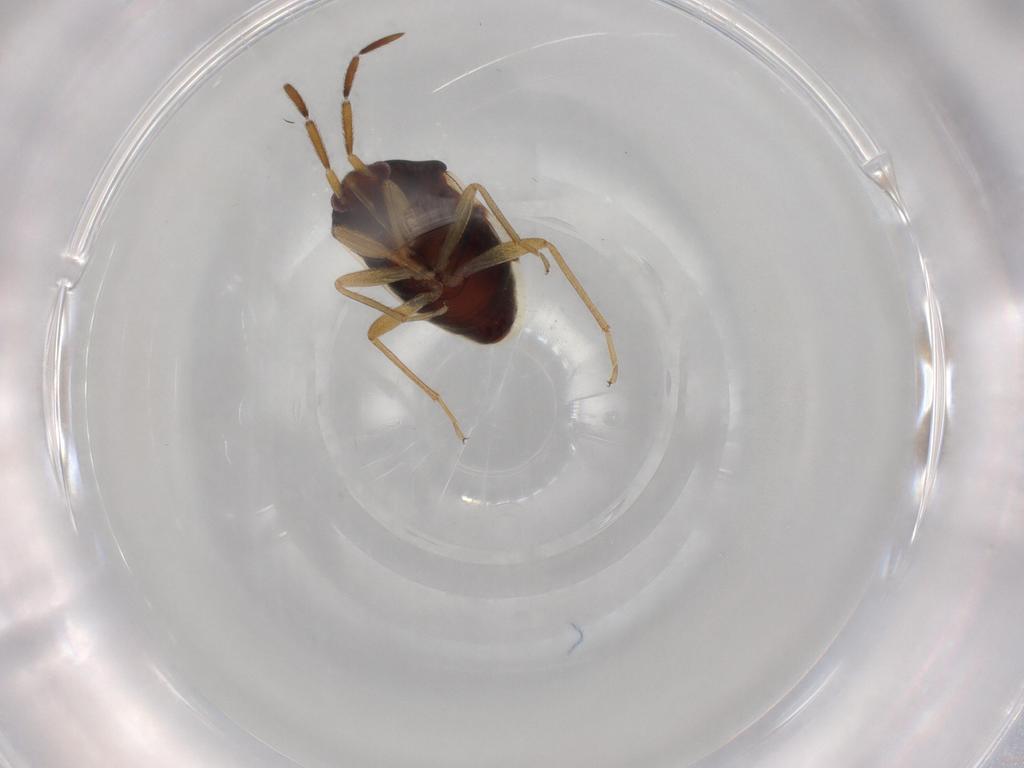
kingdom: Animalia
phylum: Arthropoda
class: Insecta
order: Hemiptera
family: Rhyparochromidae
